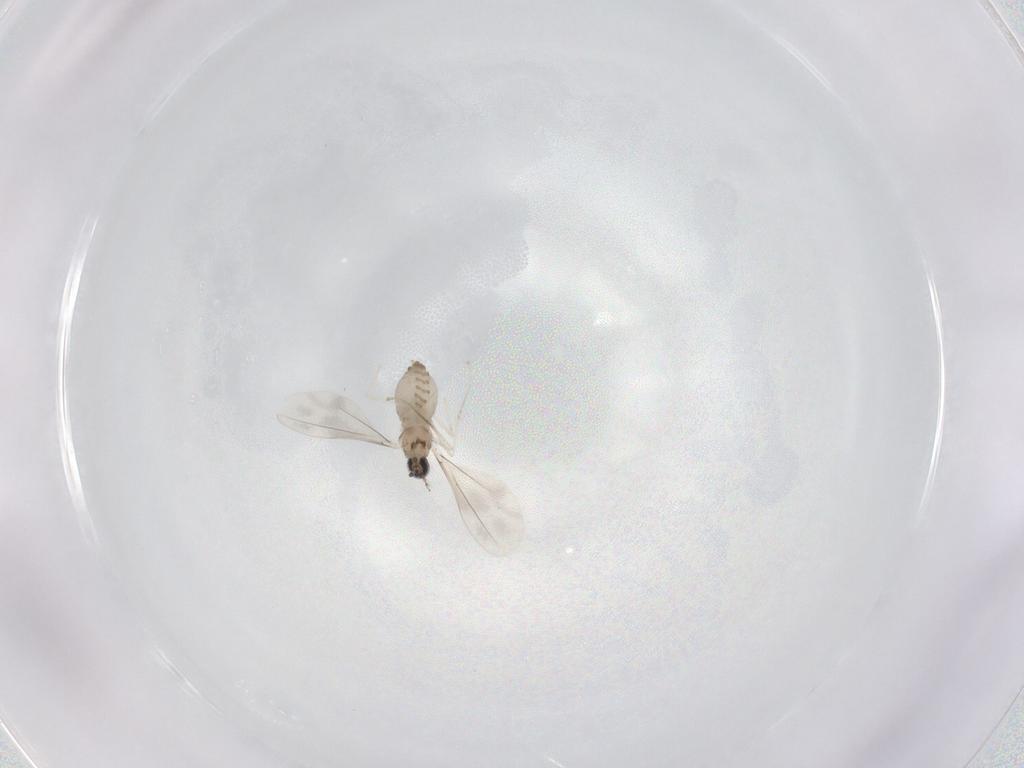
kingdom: Animalia
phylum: Arthropoda
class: Insecta
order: Diptera
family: Cecidomyiidae
